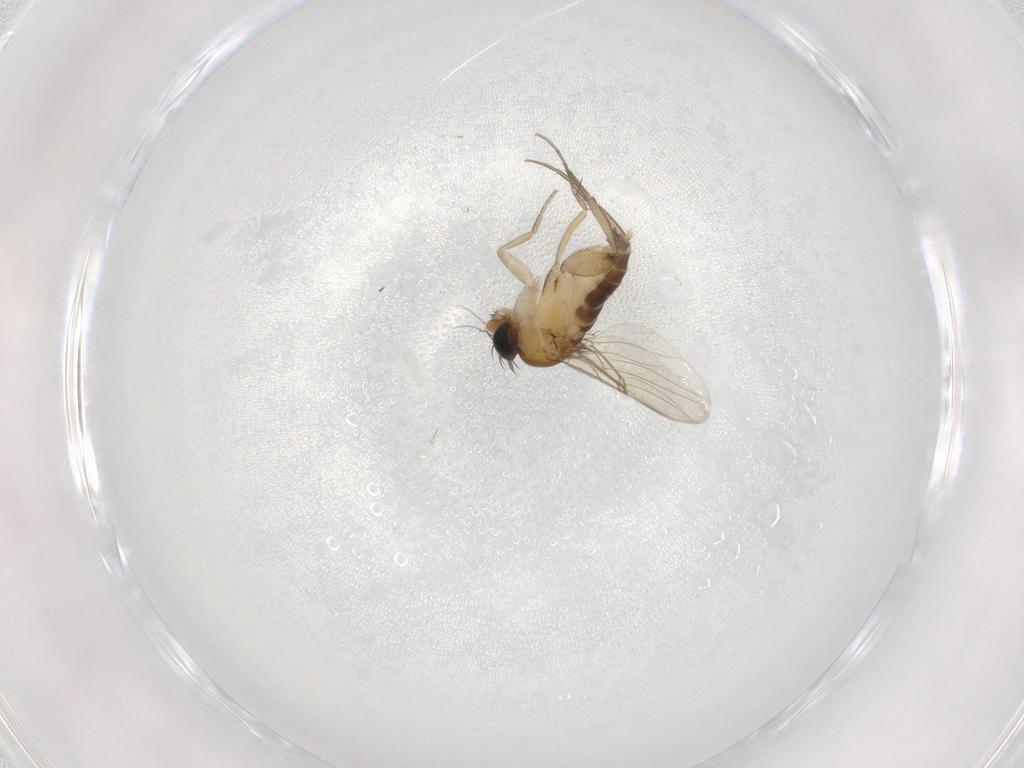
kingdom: Animalia
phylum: Arthropoda
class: Insecta
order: Diptera
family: Phoridae
